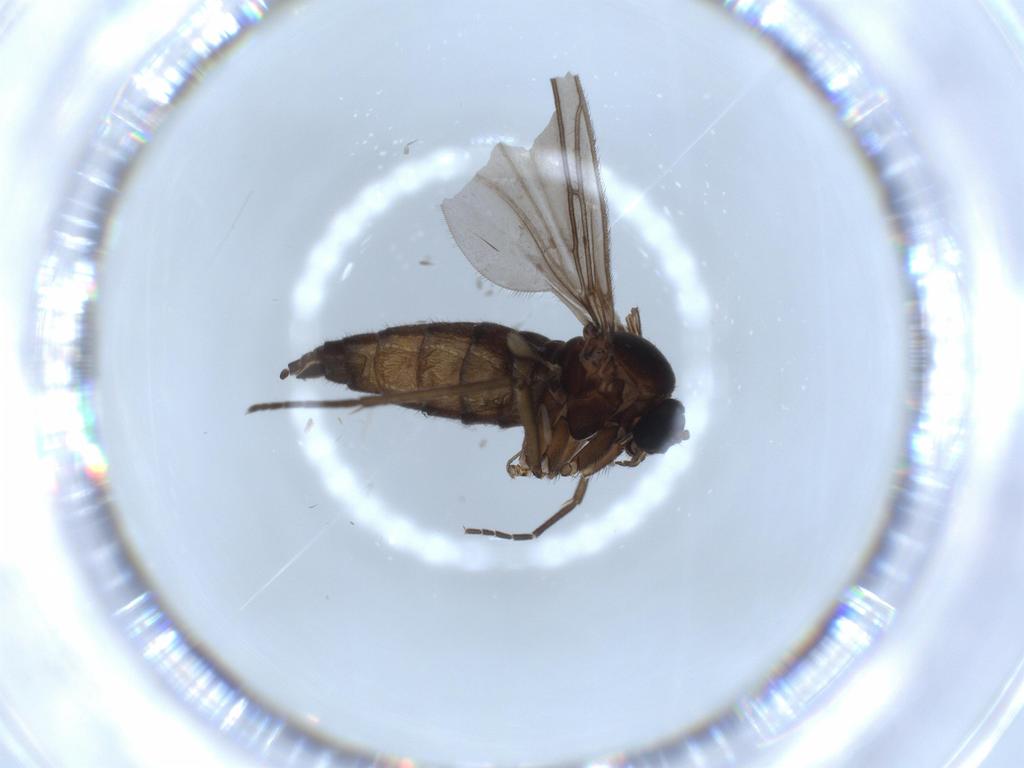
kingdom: Animalia
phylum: Arthropoda
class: Insecta
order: Diptera
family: Sciaridae
